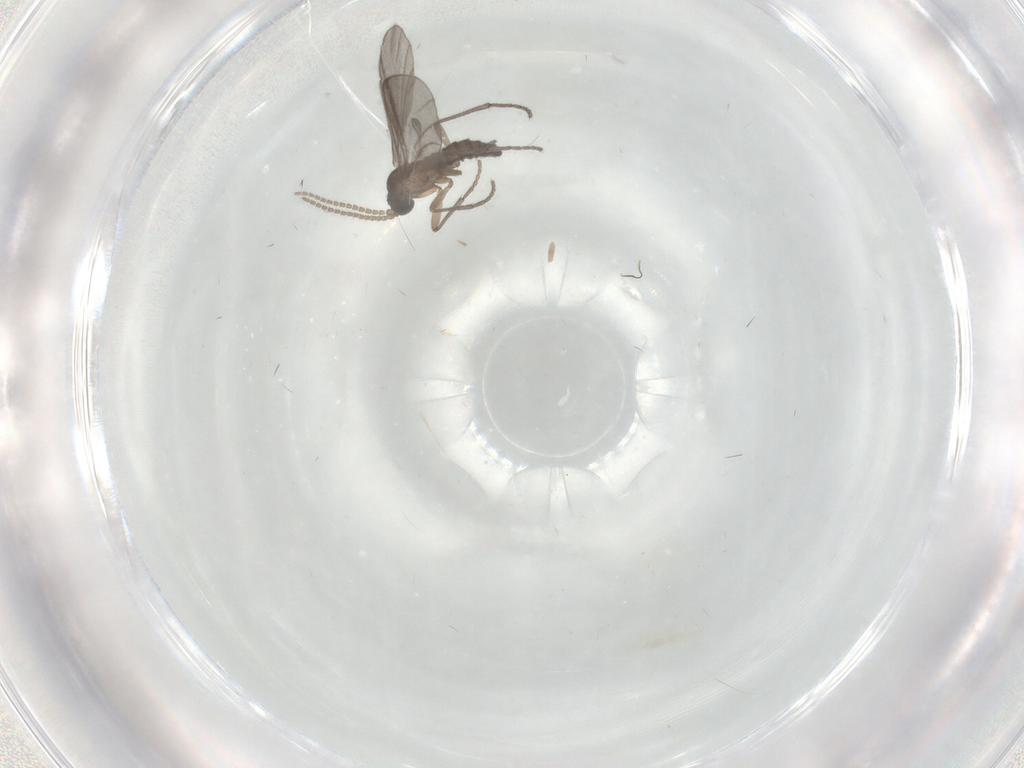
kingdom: Animalia
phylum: Arthropoda
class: Insecta
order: Diptera
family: Sciaridae
